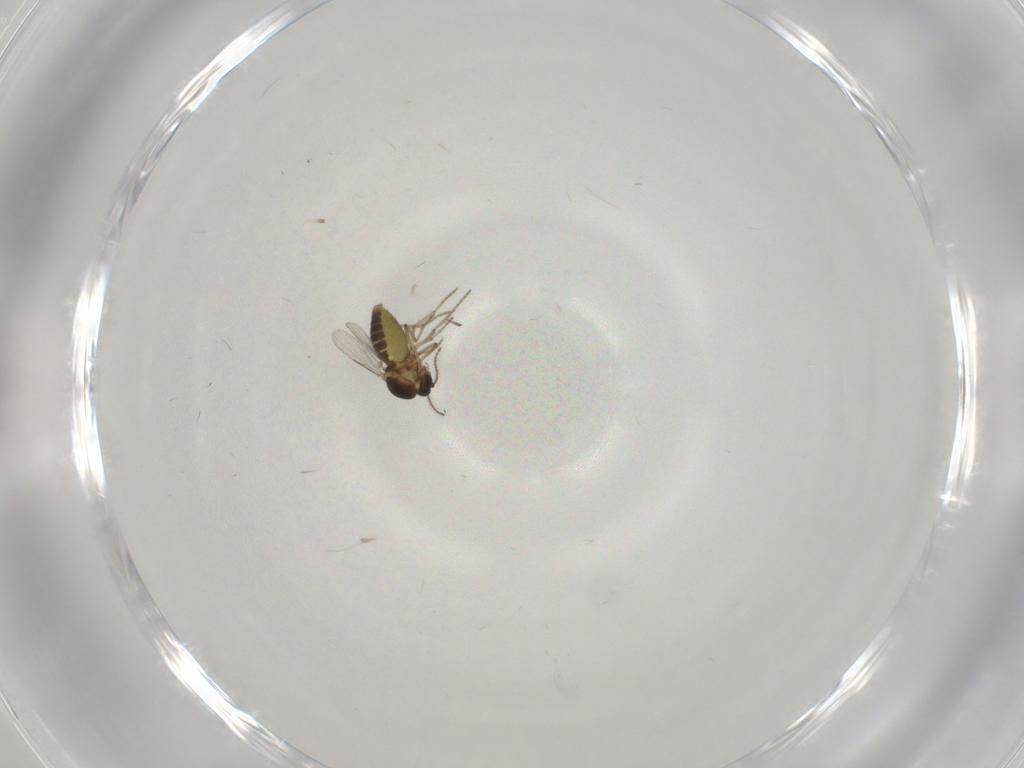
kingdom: Animalia
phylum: Arthropoda
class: Insecta
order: Diptera
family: Ceratopogonidae
